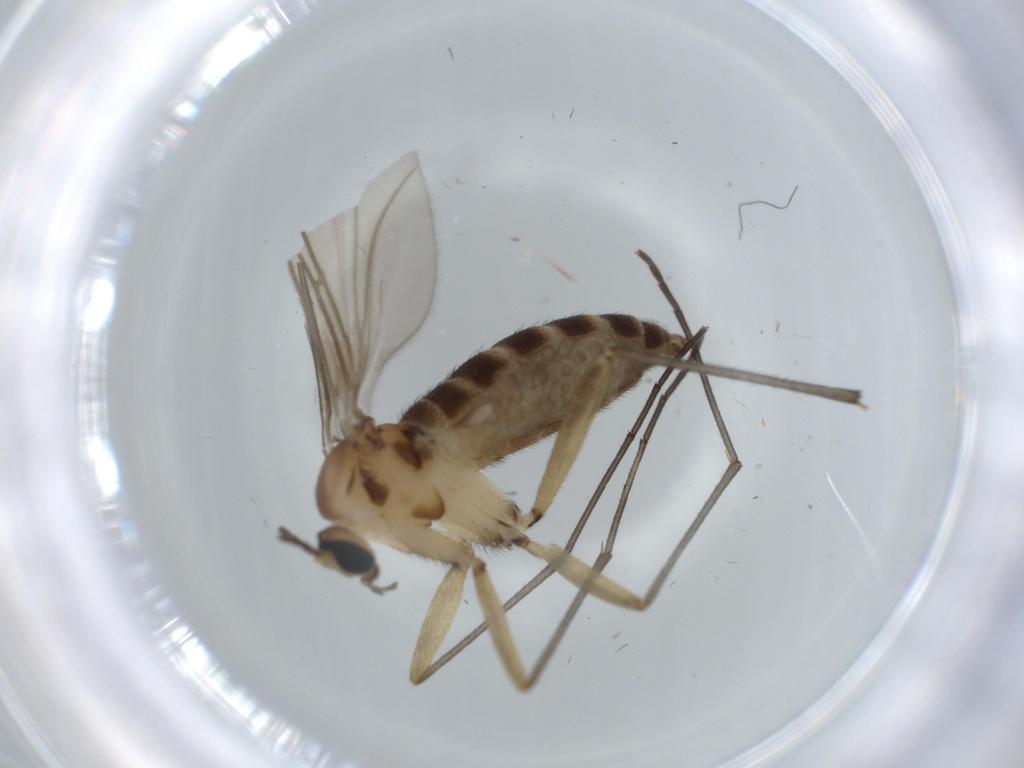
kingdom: Animalia
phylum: Arthropoda
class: Insecta
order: Diptera
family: Sciaridae
